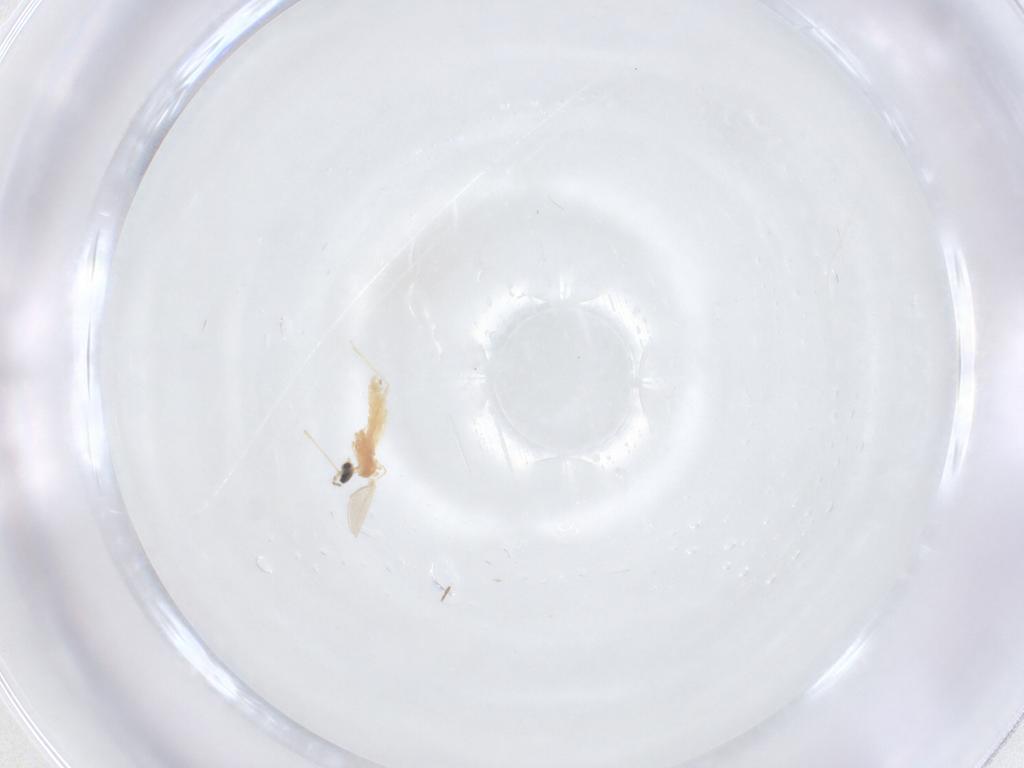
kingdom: Animalia
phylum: Arthropoda
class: Insecta
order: Diptera
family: Cecidomyiidae
